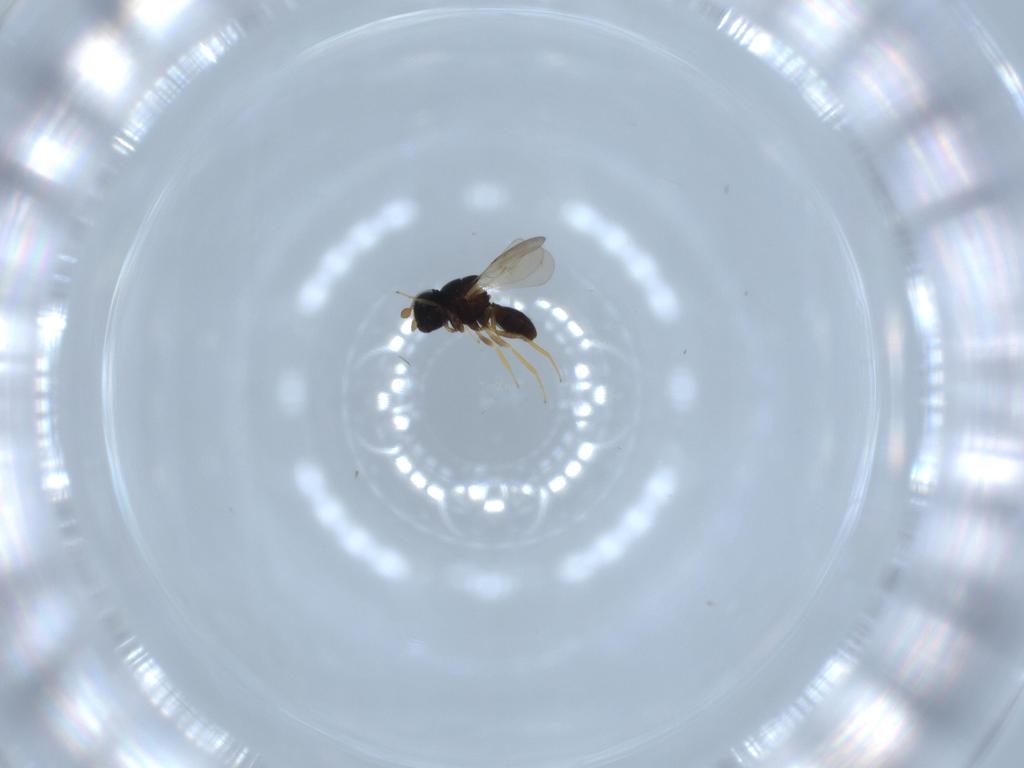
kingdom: Animalia
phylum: Arthropoda
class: Insecta
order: Hymenoptera
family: Scelionidae
